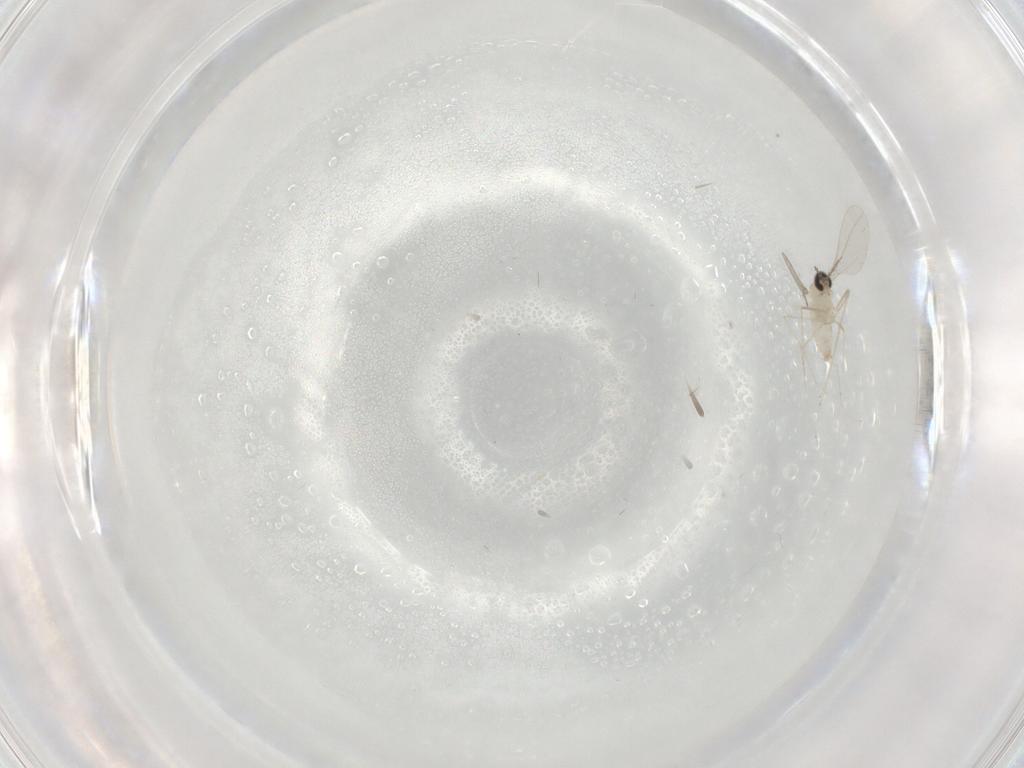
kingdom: Animalia
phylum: Arthropoda
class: Insecta
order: Diptera
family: Cecidomyiidae
